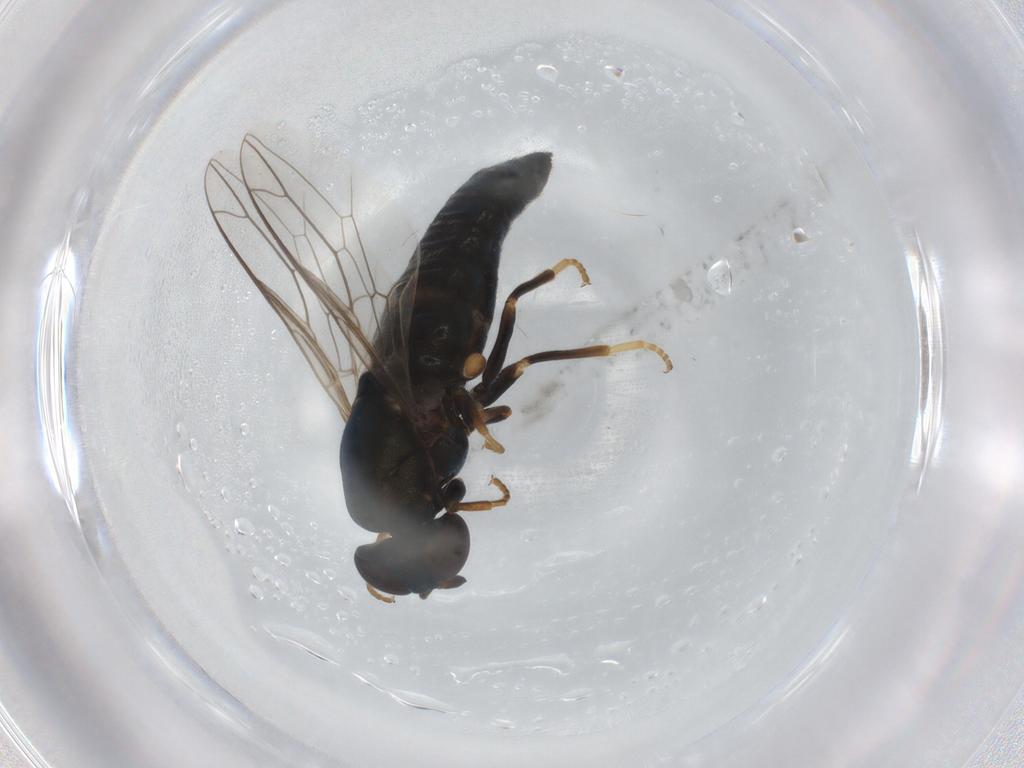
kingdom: Animalia
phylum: Arthropoda
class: Insecta
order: Diptera
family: Scenopinidae
